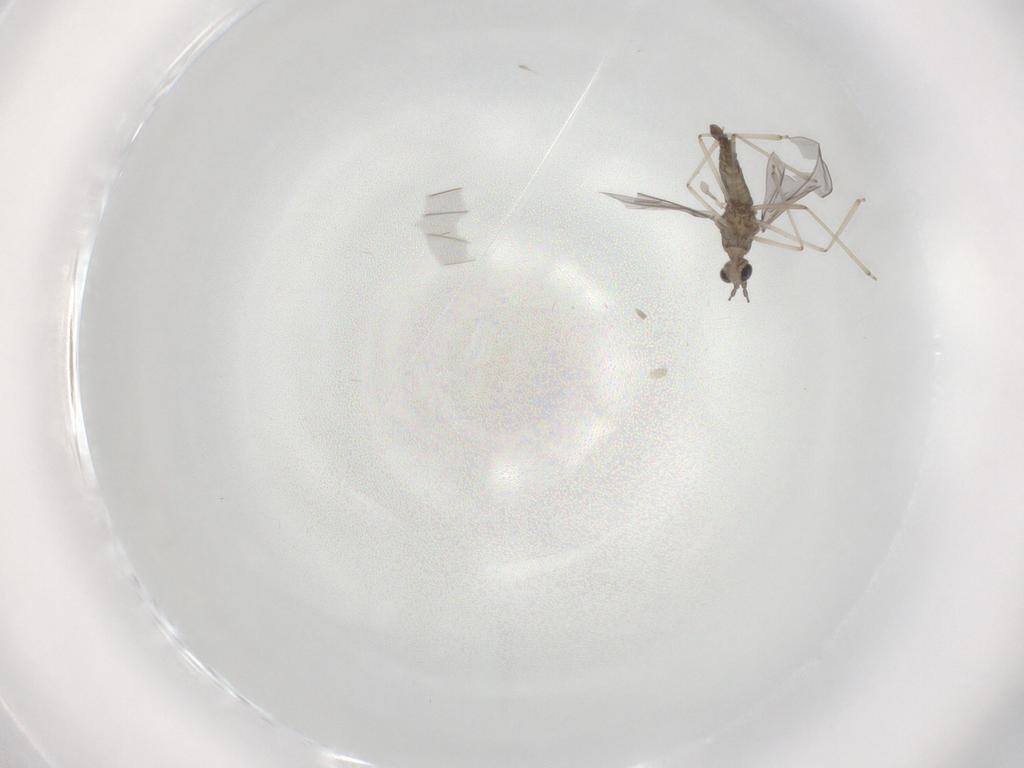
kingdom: Animalia
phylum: Arthropoda
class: Insecta
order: Diptera
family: Cecidomyiidae
